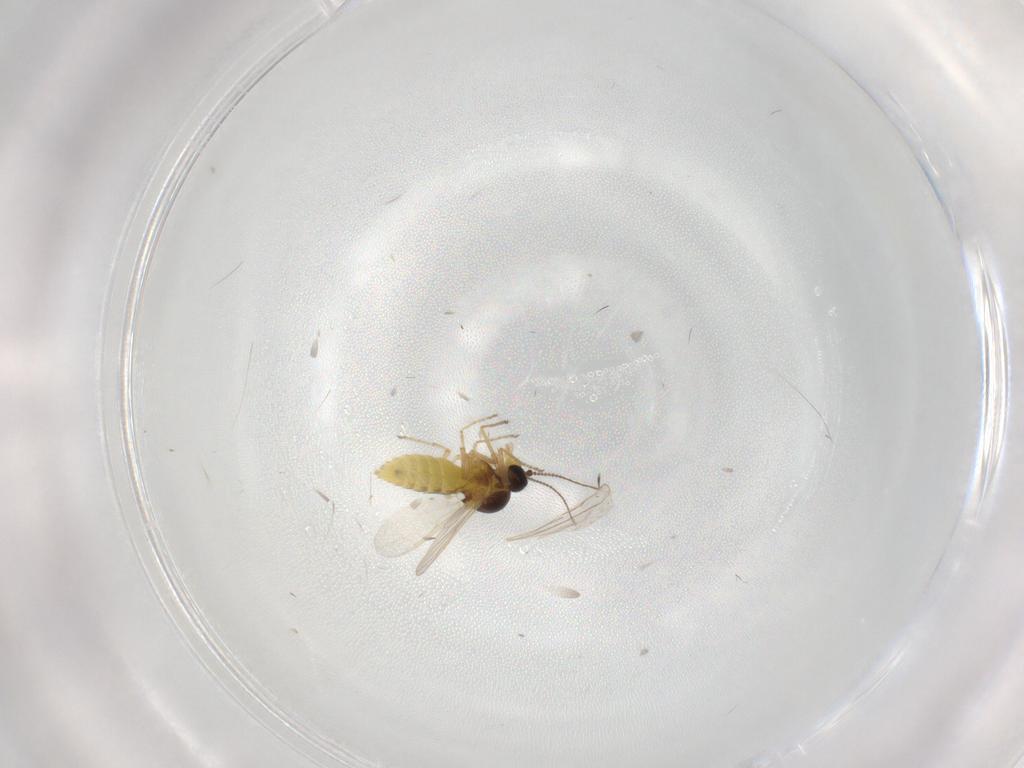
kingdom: Animalia
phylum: Arthropoda
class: Insecta
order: Diptera
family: Ceratopogonidae
